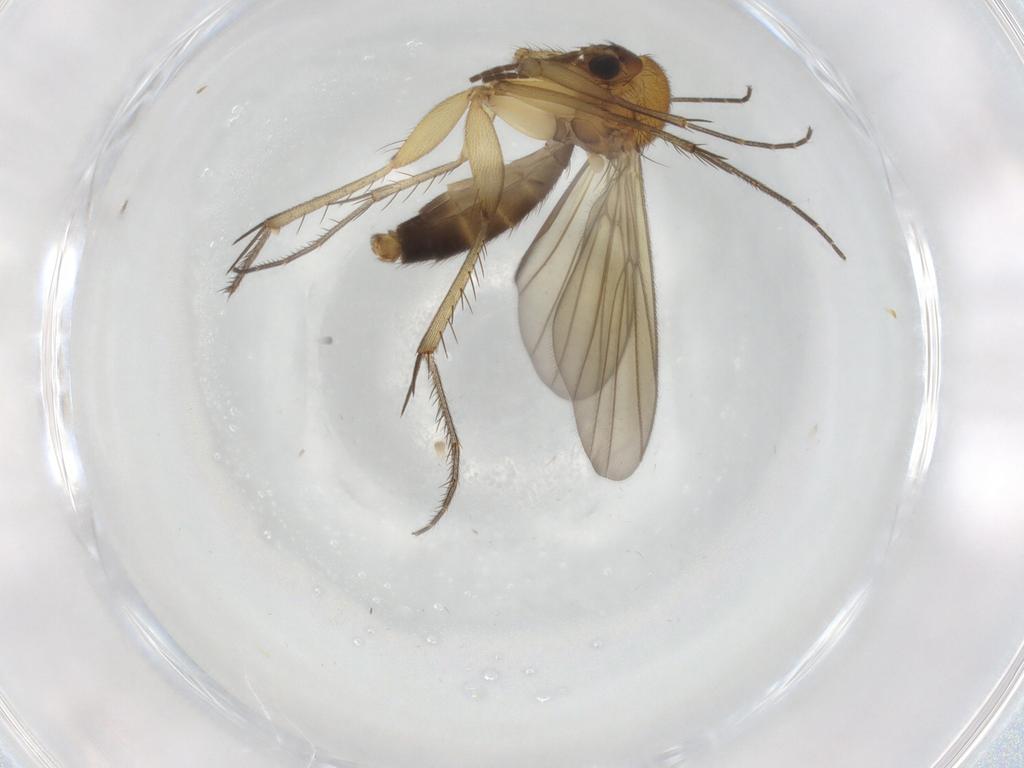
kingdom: Animalia
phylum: Arthropoda
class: Insecta
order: Diptera
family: Mycetophilidae
